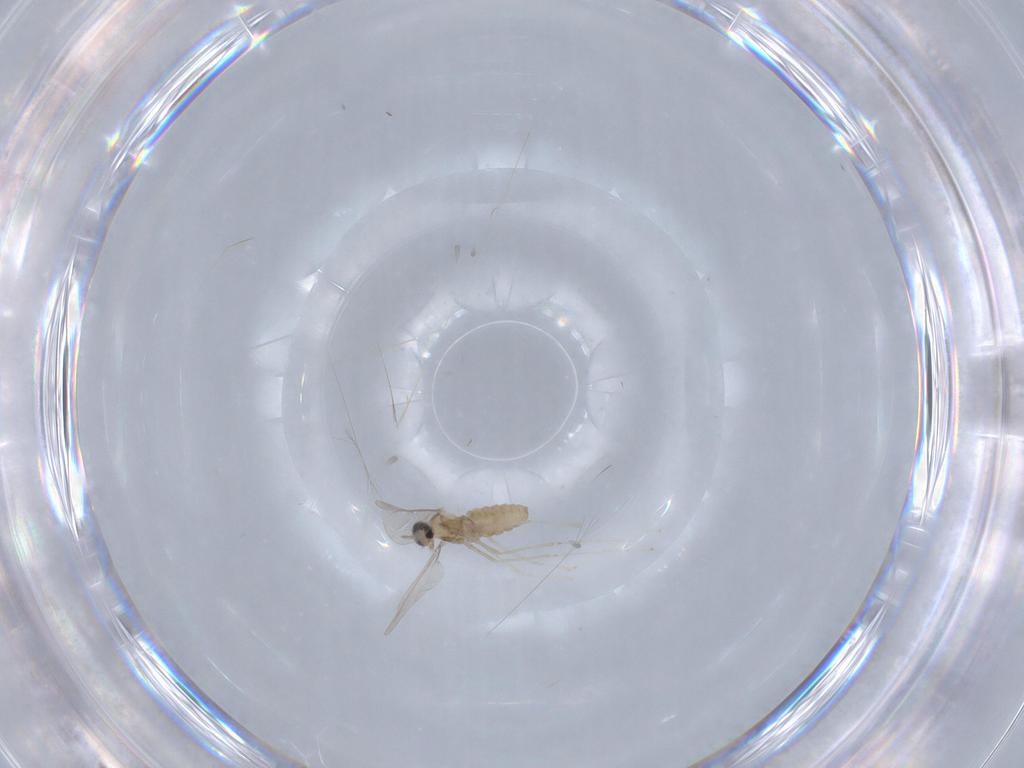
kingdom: Animalia
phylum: Arthropoda
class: Insecta
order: Diptera
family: Cecidomyiidae
